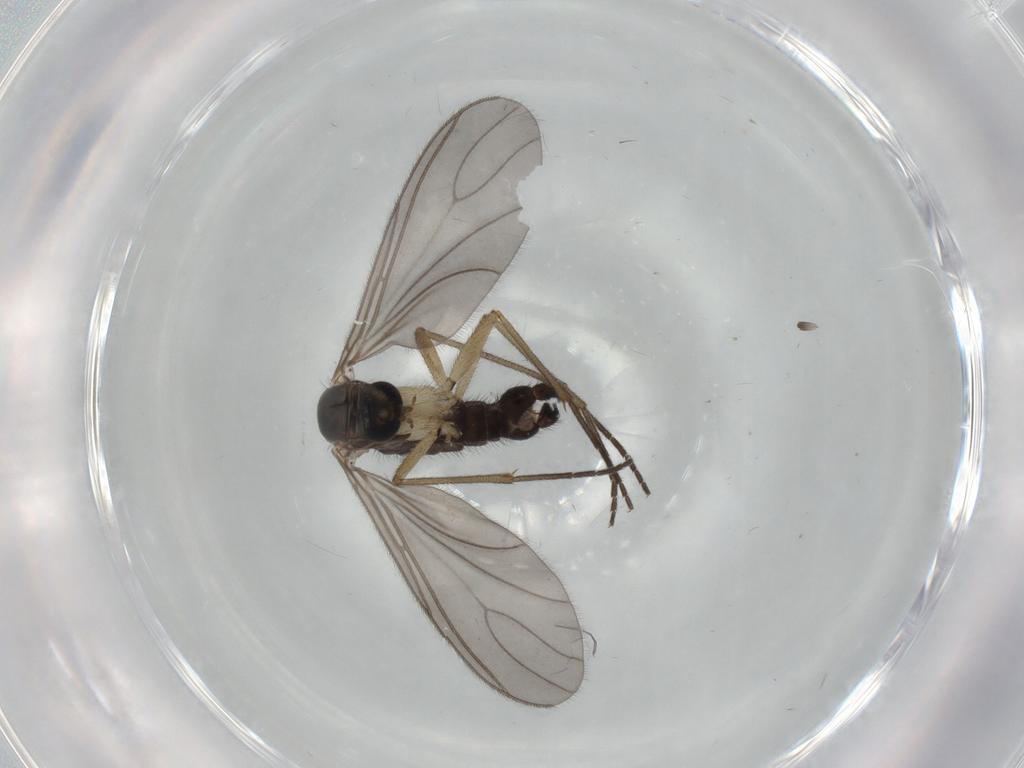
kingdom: Animalia
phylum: Arthropoda
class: Insecta
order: Diptera
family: Sciaridae
